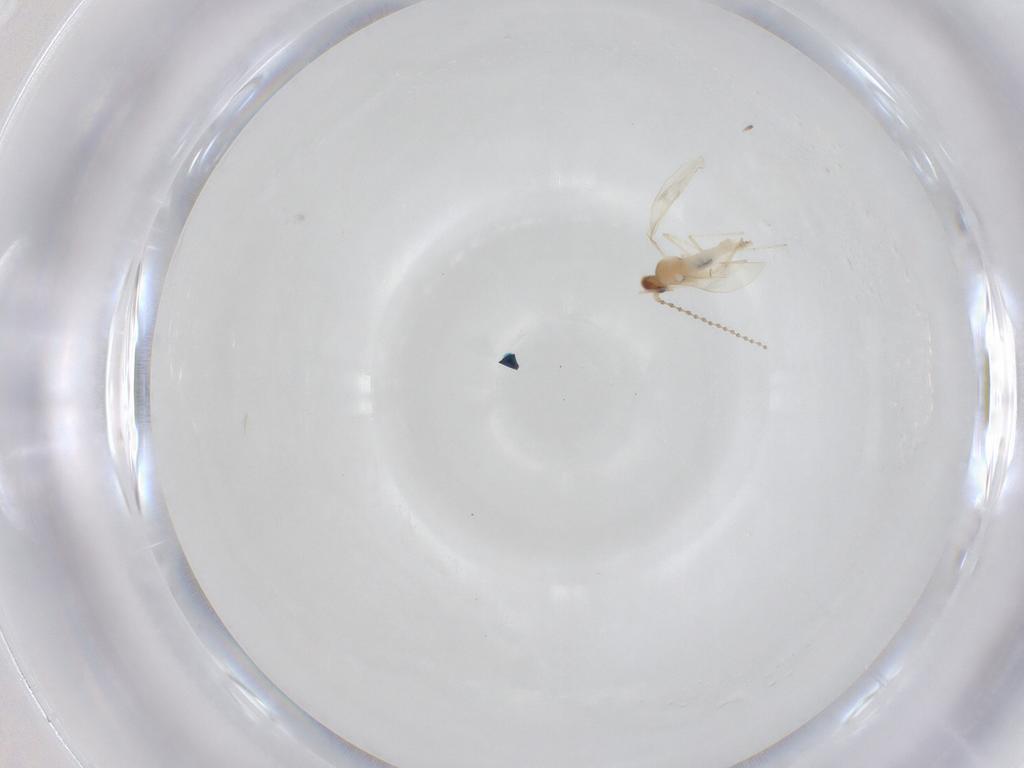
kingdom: Animalia
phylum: Arthropoda
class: Insecta
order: Diptera
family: Cecidomyiidae
